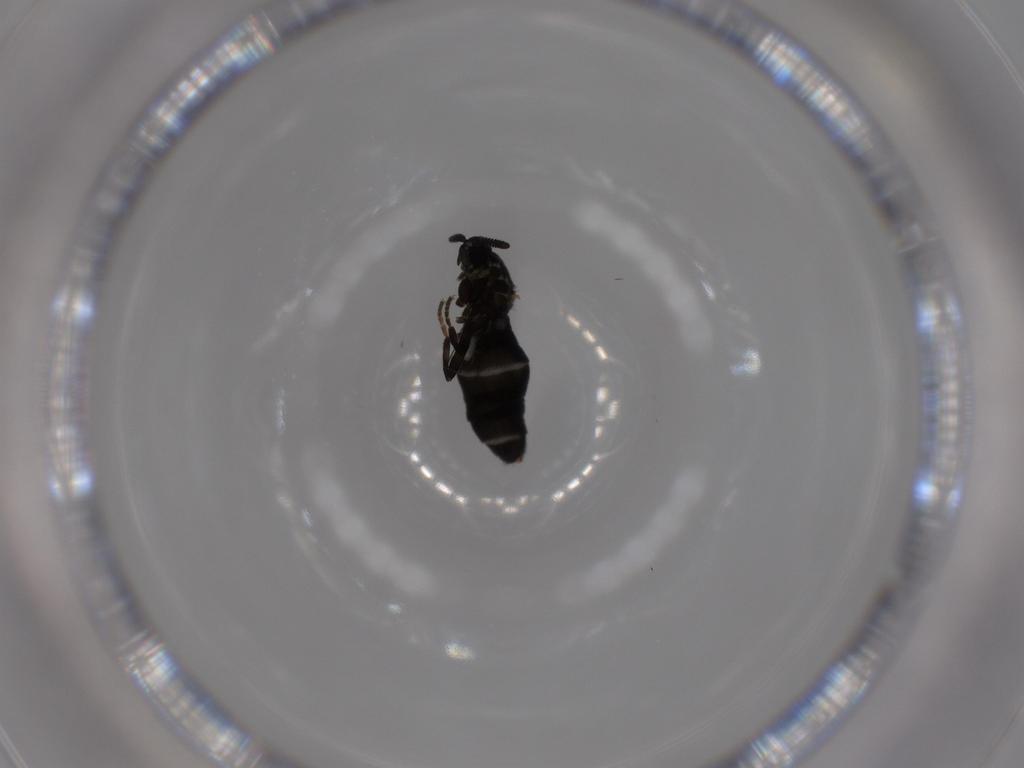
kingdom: Animalia
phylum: Arthropoda
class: Insecta
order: Diptera
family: Scatopsidae
